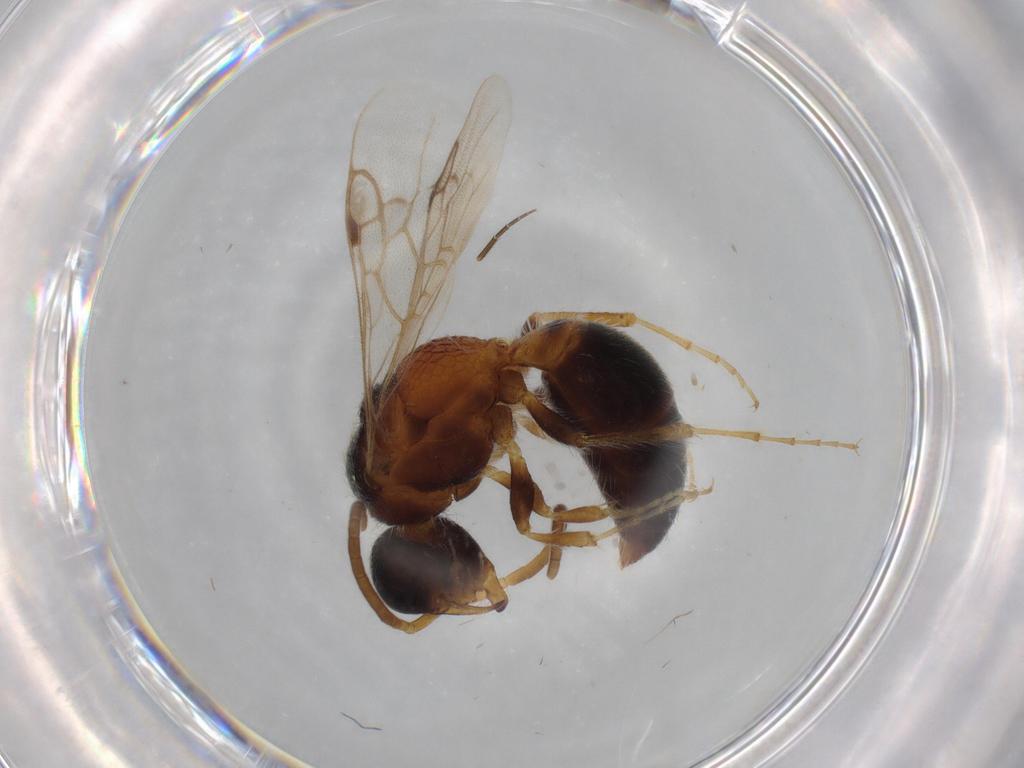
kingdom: Animalia
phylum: Arthropoda
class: Insecta
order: Hymenoptera
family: Mutillidae
